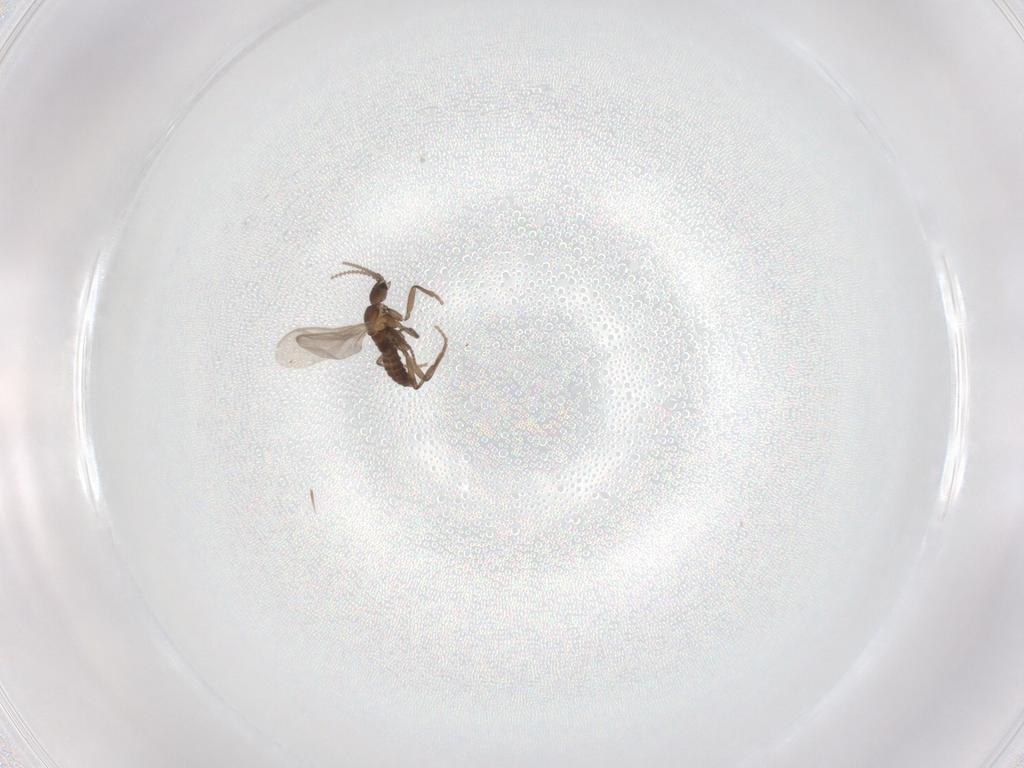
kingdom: Animalia
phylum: Arthropoda
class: Insecta
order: Diptera
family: Cecidomyiidae
